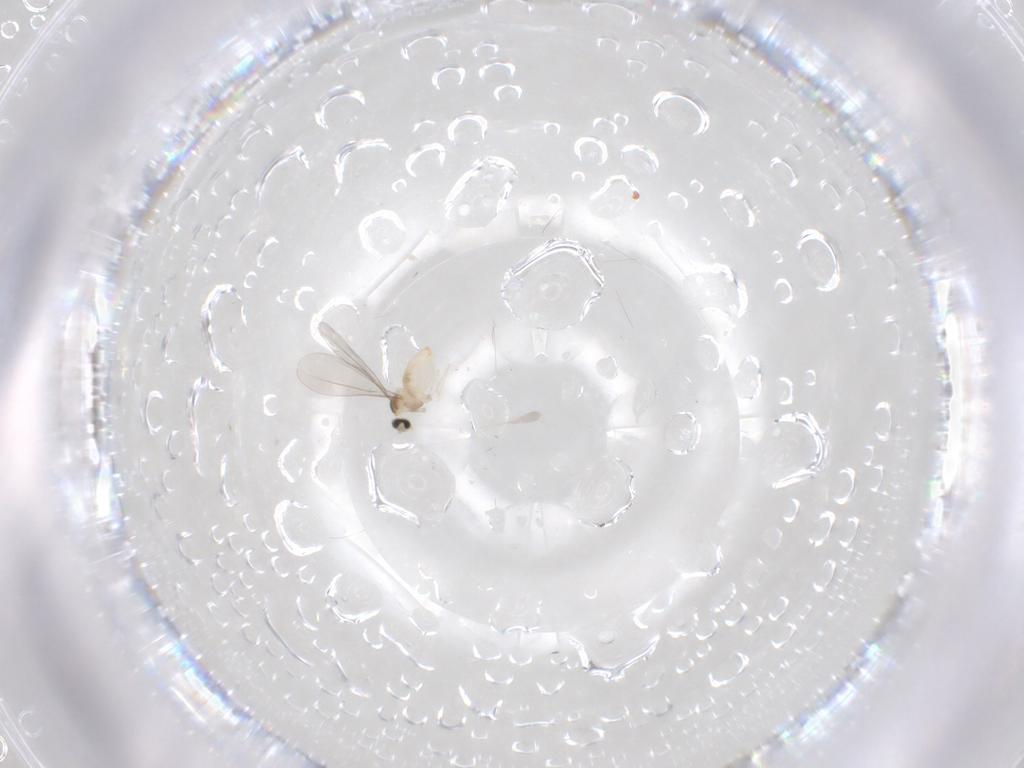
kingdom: Animalia
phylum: Arthropoda
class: Insecta
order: Diptera
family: Cecidomyiidae
